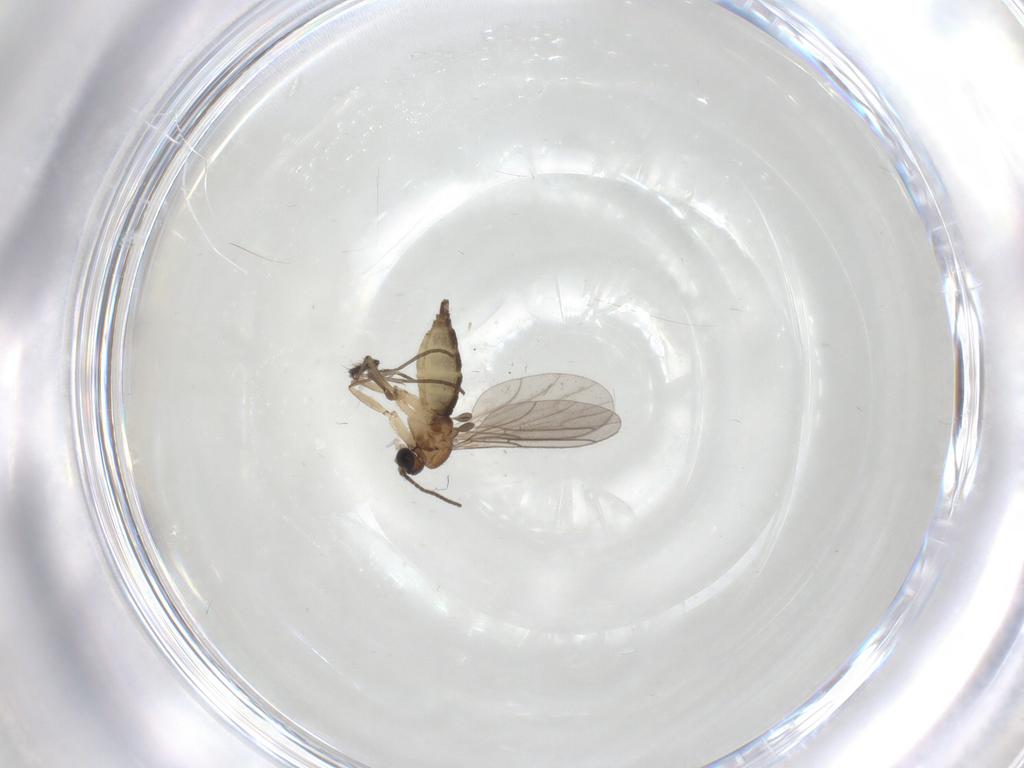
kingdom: Animalia
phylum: Arthropoda
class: Insecta
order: Diptera
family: Sciaridae
